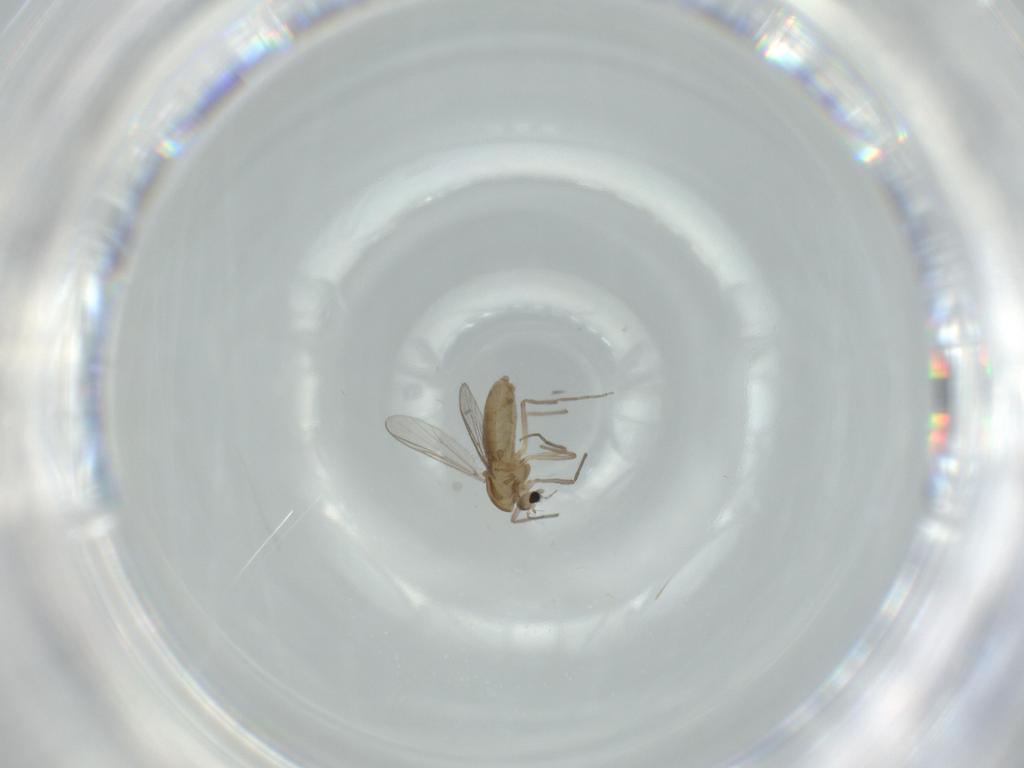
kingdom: Animalia
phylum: Arthropoda
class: Insecta
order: Diptera
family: Chironomidae
